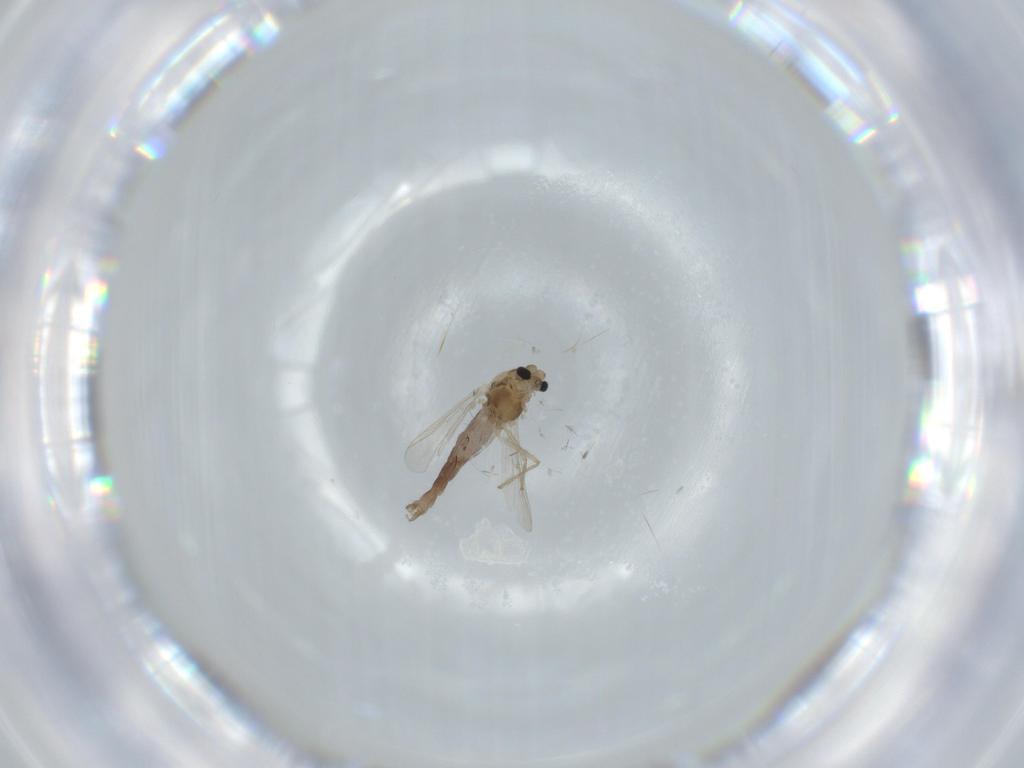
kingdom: Animalia
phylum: Arthropoda
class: Insecta
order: Diptera
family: Chironomidae
